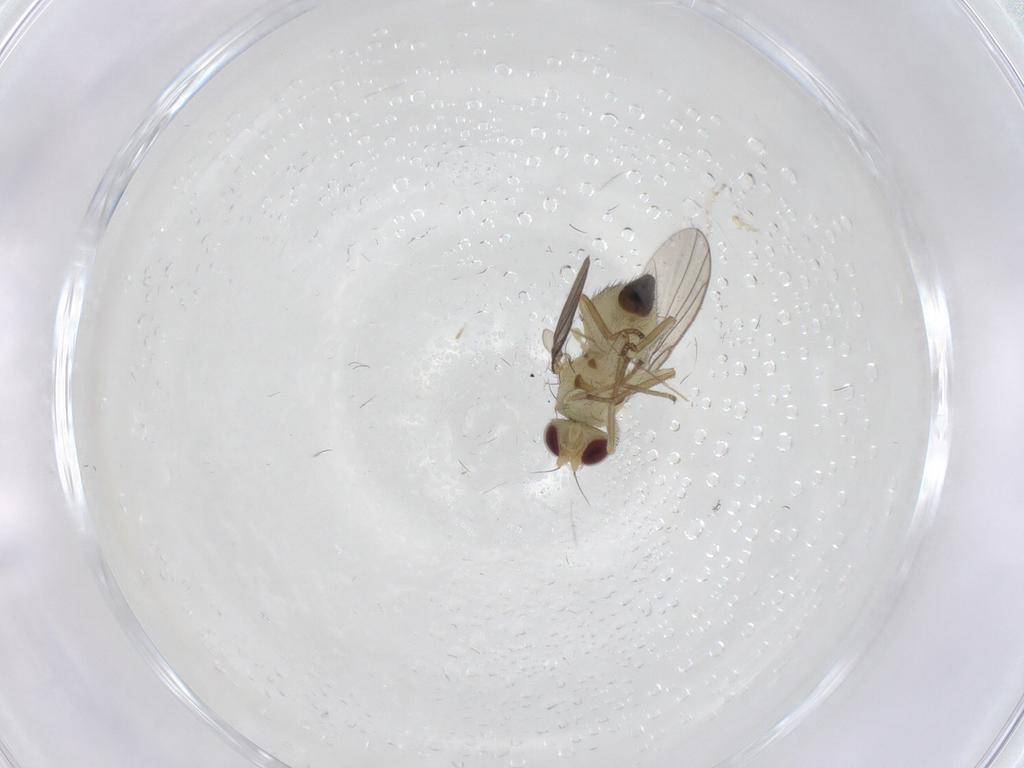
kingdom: Animalia
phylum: Arthropoda
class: Insecta
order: Diptera
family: Agromyzidae
